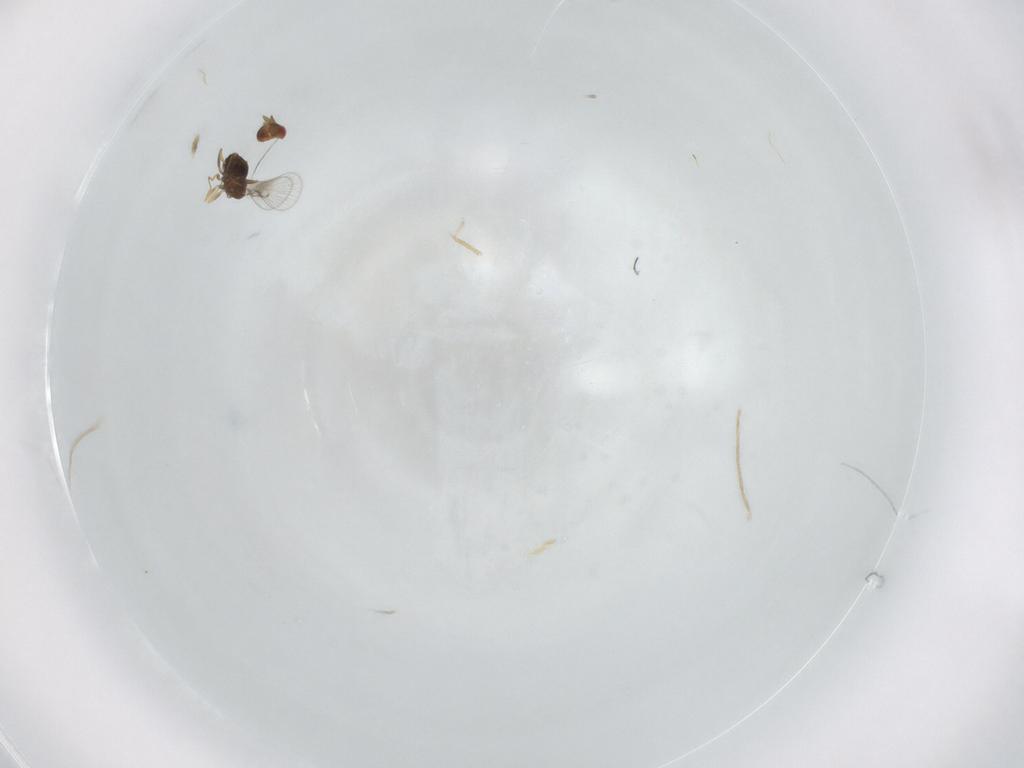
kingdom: Animalia
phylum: Arthropoda
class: Insecta
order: Hymenoptera
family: Trichogrammatidae
